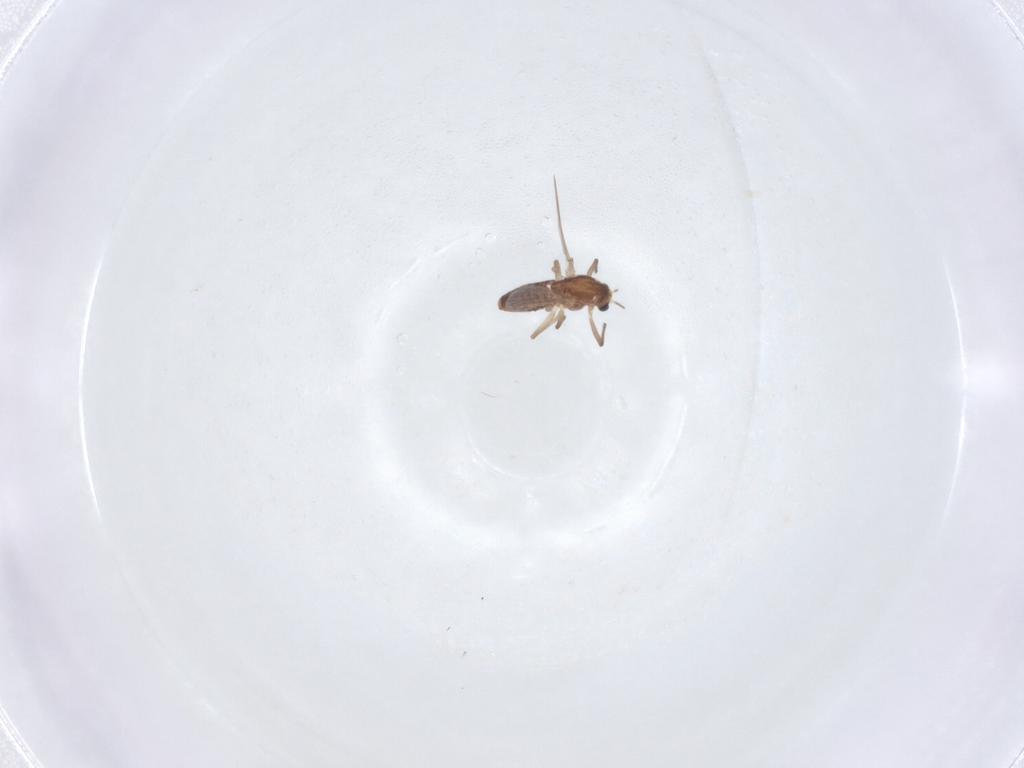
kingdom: Animalia
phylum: Arthropoda
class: Insecta
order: Diptera
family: Chironomidae
